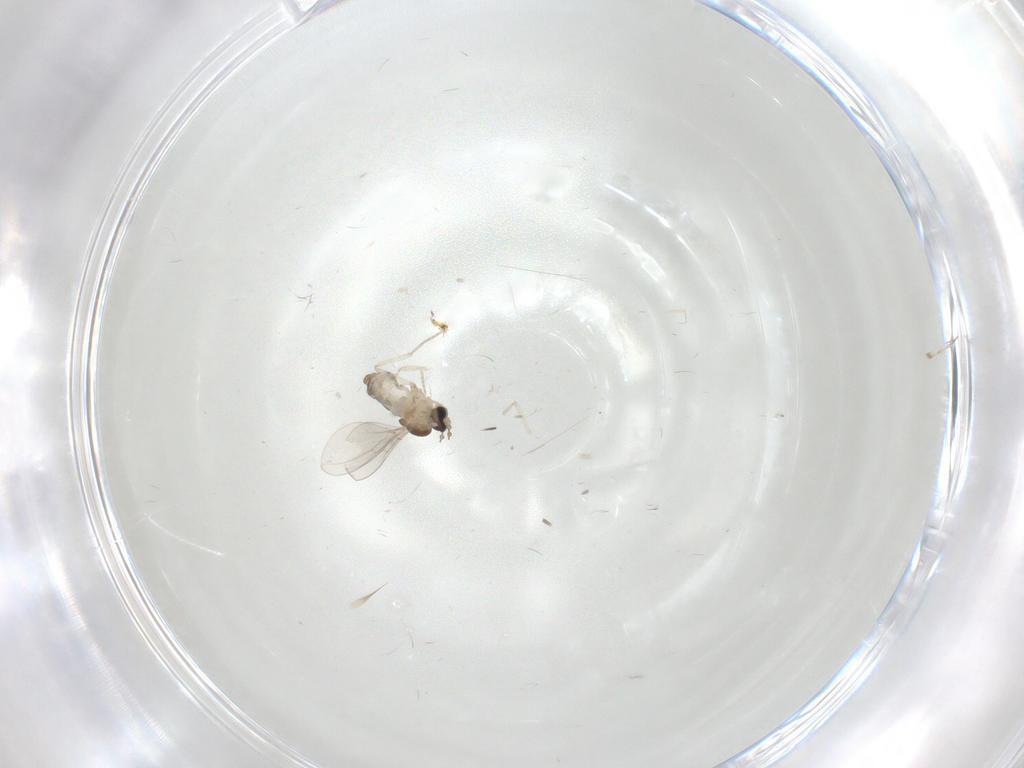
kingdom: Animalia
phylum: Arthropoda
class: Insecta
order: Diptera
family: Cecidomyiidae
